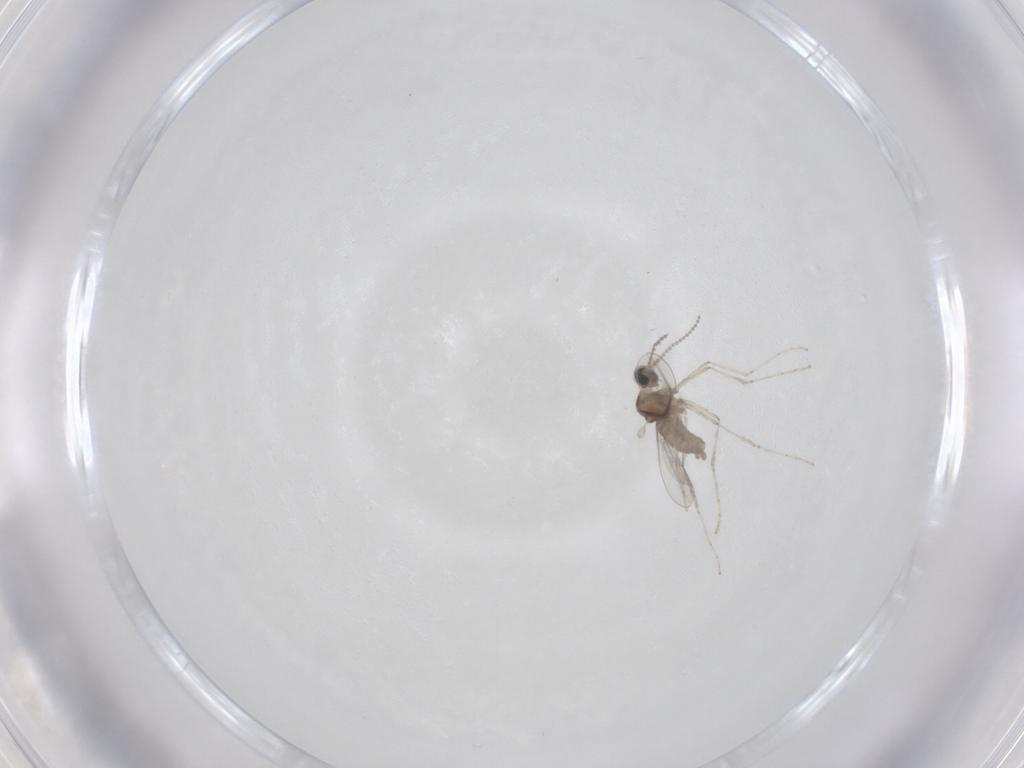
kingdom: Animalia
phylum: Arthropoda
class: Insecta
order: Diptera
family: Cecidomyiidae
